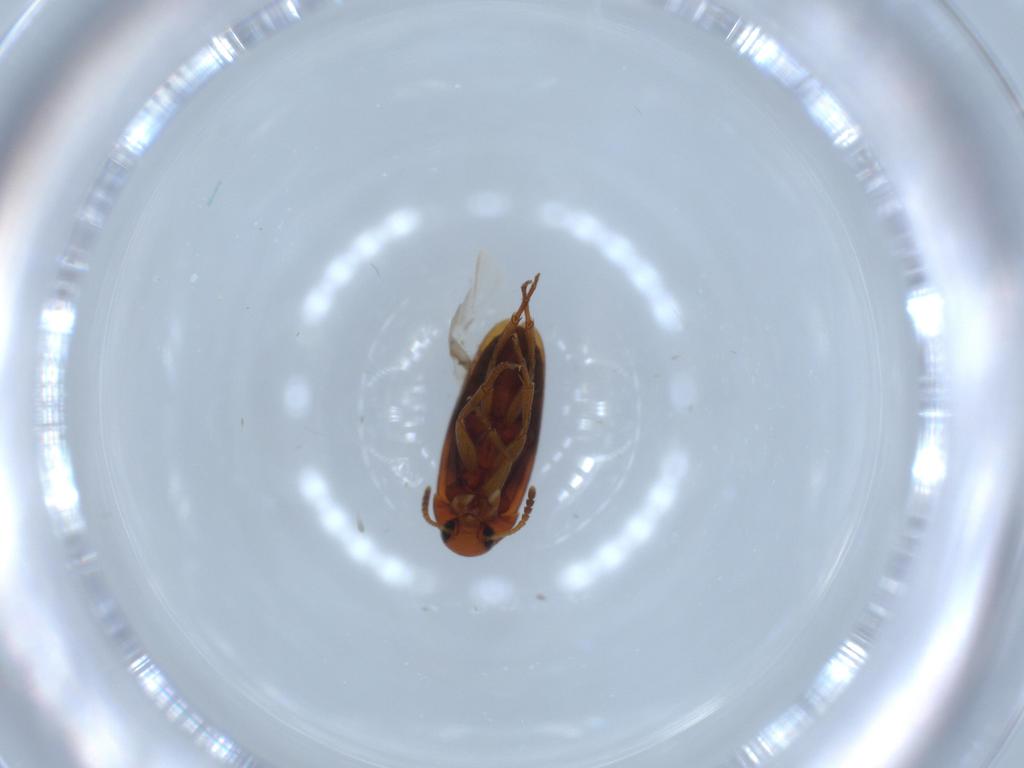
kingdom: Animalia
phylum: Arthropoda
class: Insecta
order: Coleoptera
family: Scraptiidae
